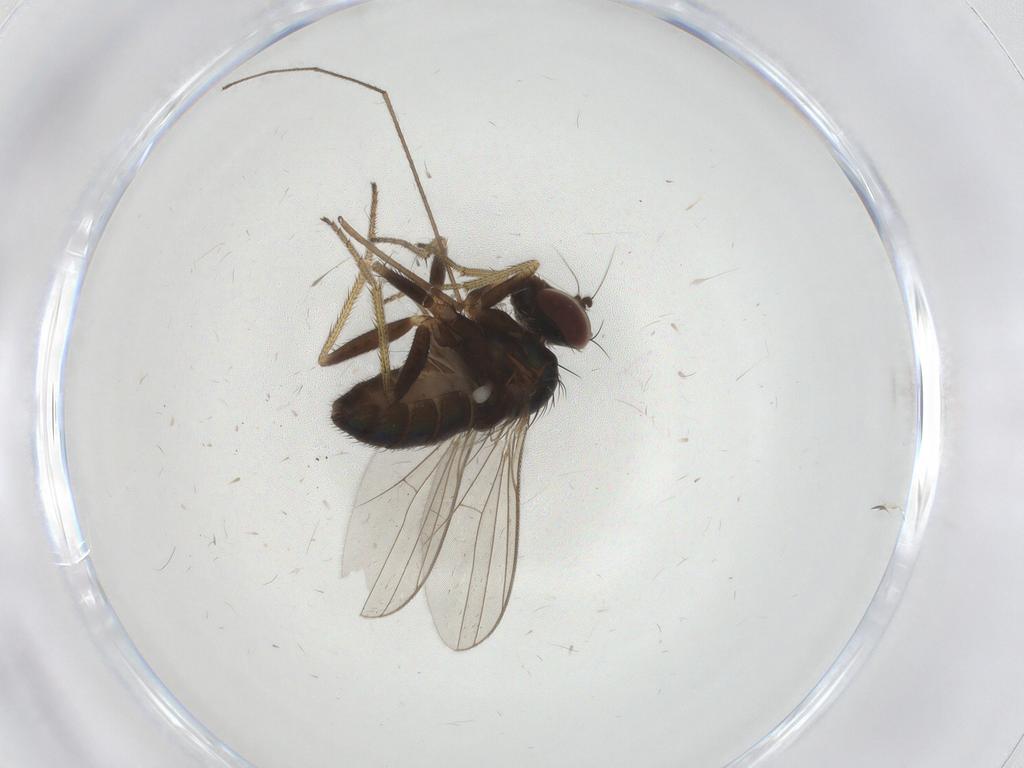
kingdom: Animalia
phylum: Arthropoda
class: Insecta
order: Diptera
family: Limoniidae
